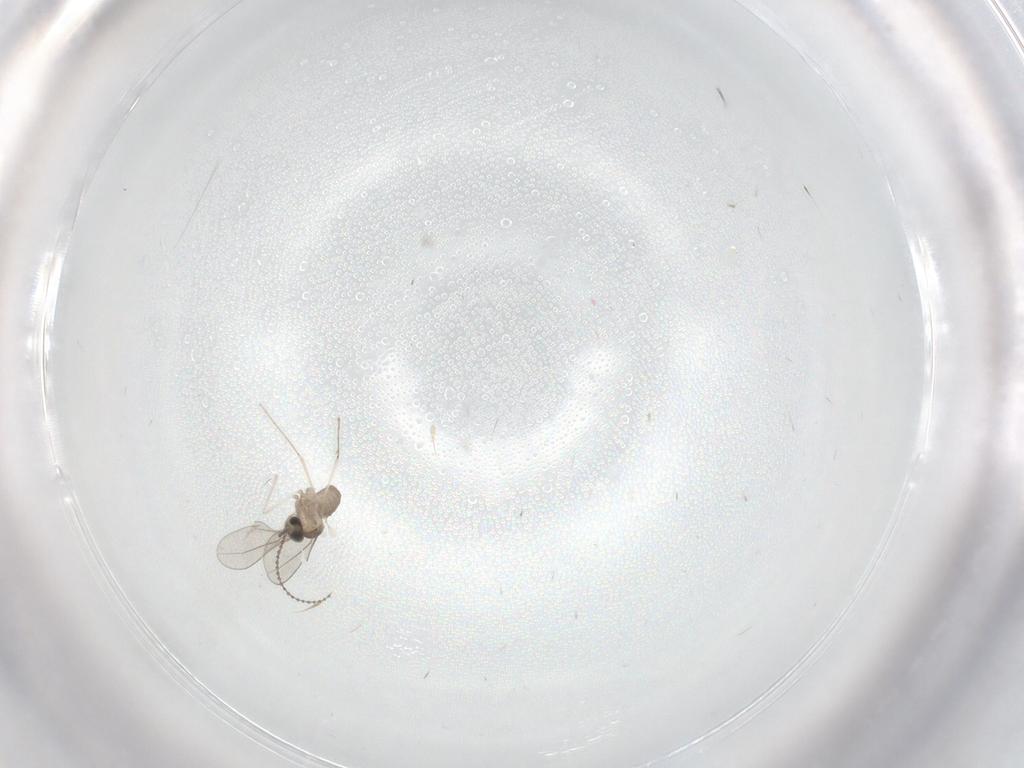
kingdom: Animalia
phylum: Arthropoda
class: Insecta
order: Diptera
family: Cecidomyiidae
